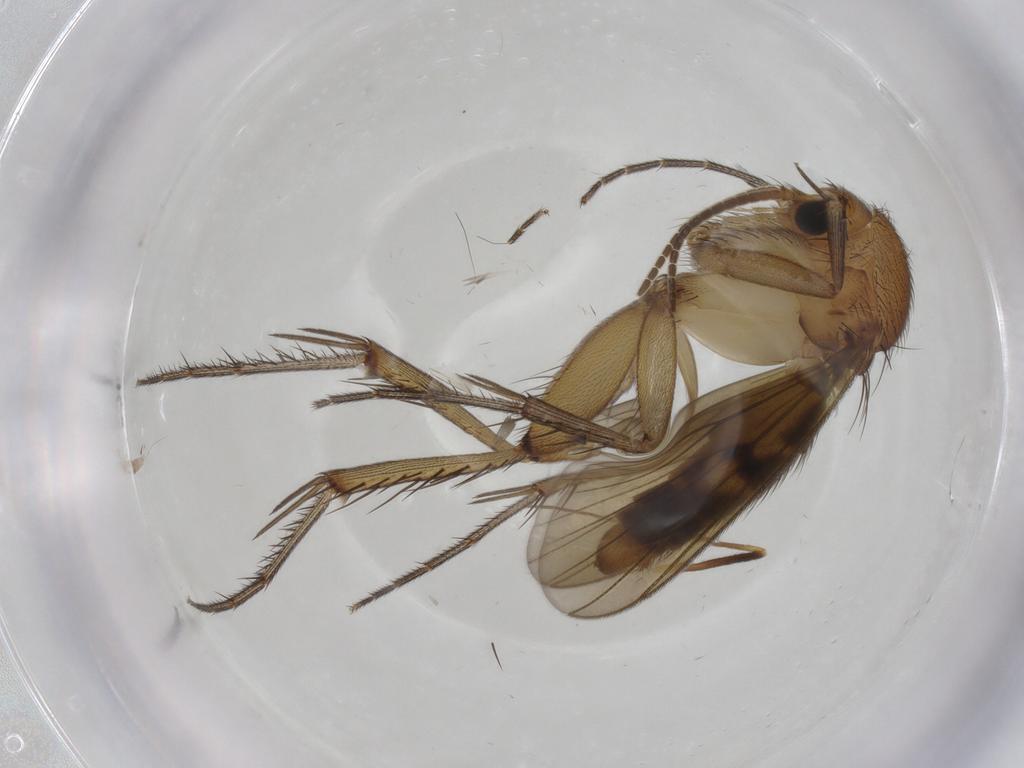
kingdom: Animalia
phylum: Arthropoda
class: Insecta
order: Diptera
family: Mycetophilidae
